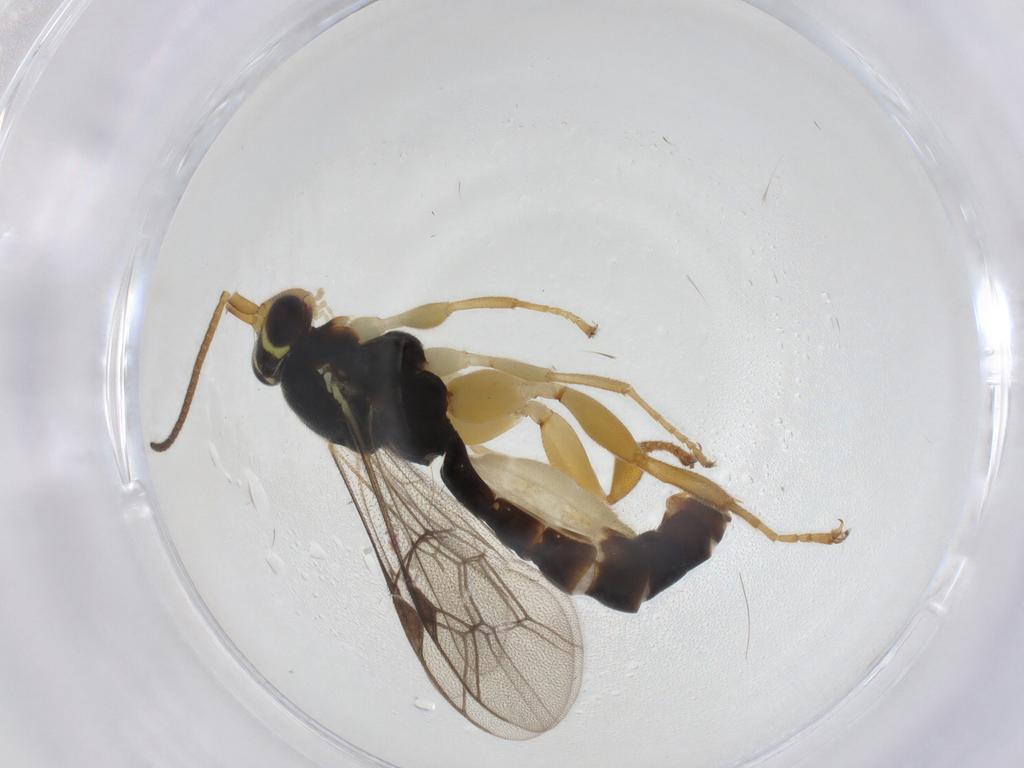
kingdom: Animalia
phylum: Arthropoda
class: Insecta
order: Hymenoptera
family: Ichneumonidae
